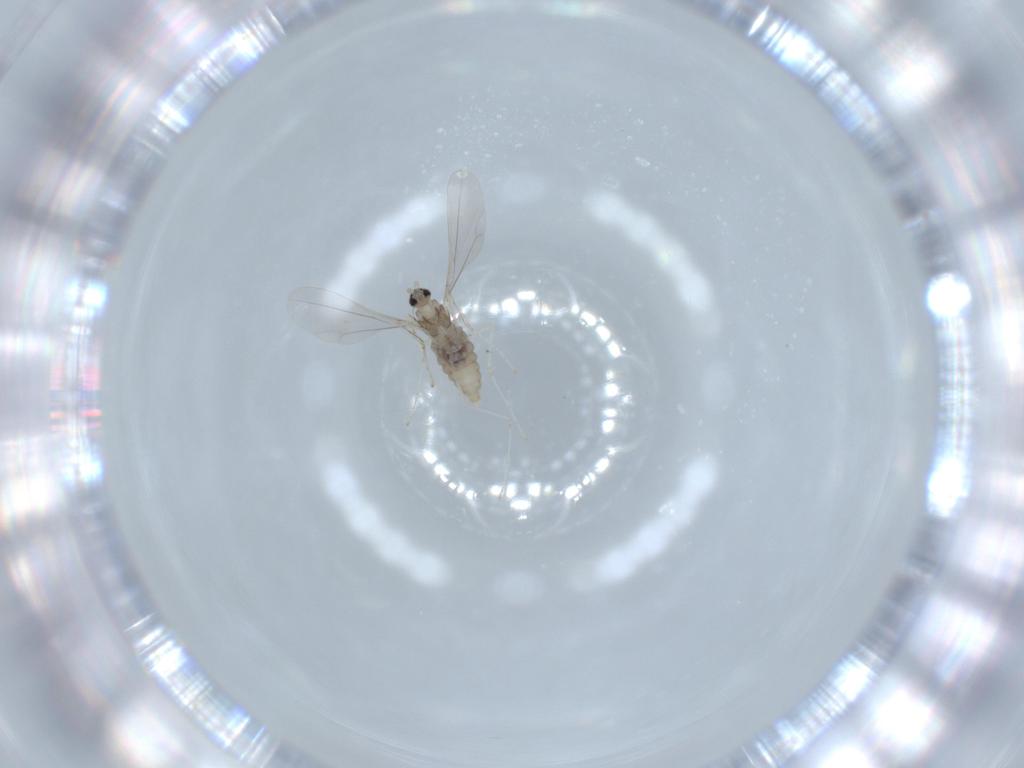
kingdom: Animalia
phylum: Arthropoda
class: Insecta
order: Diptera
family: Cecidomyiidae
